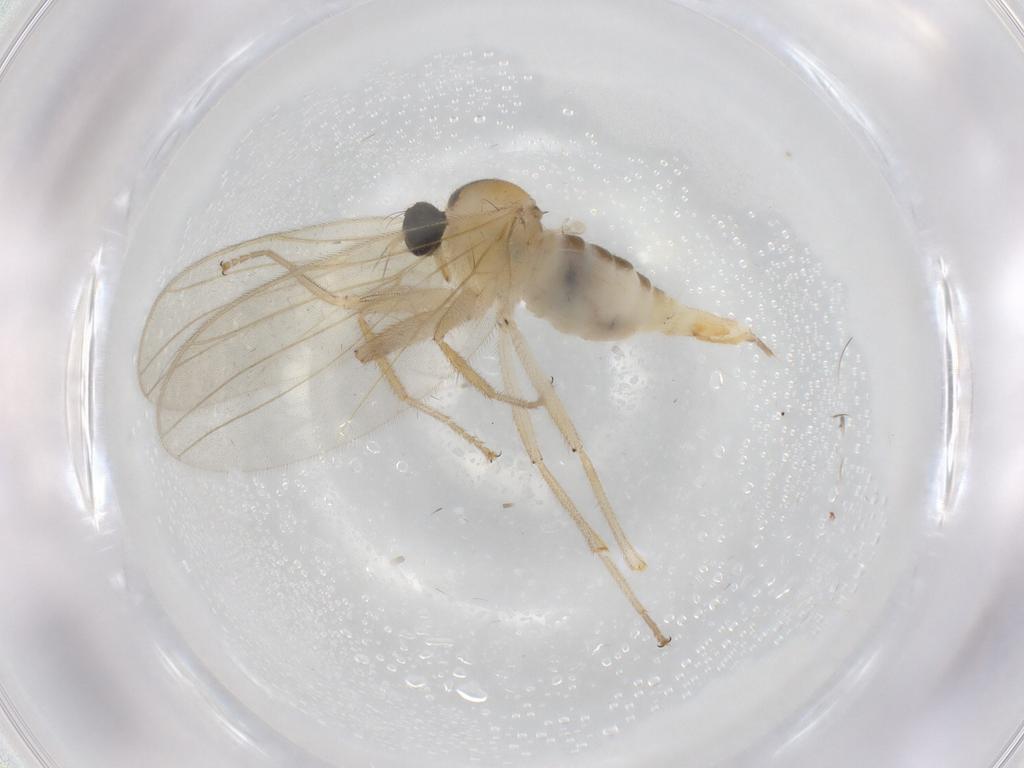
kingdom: Animalia
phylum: Arthropoda
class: Insecta
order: Diptera
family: Hybotidae
